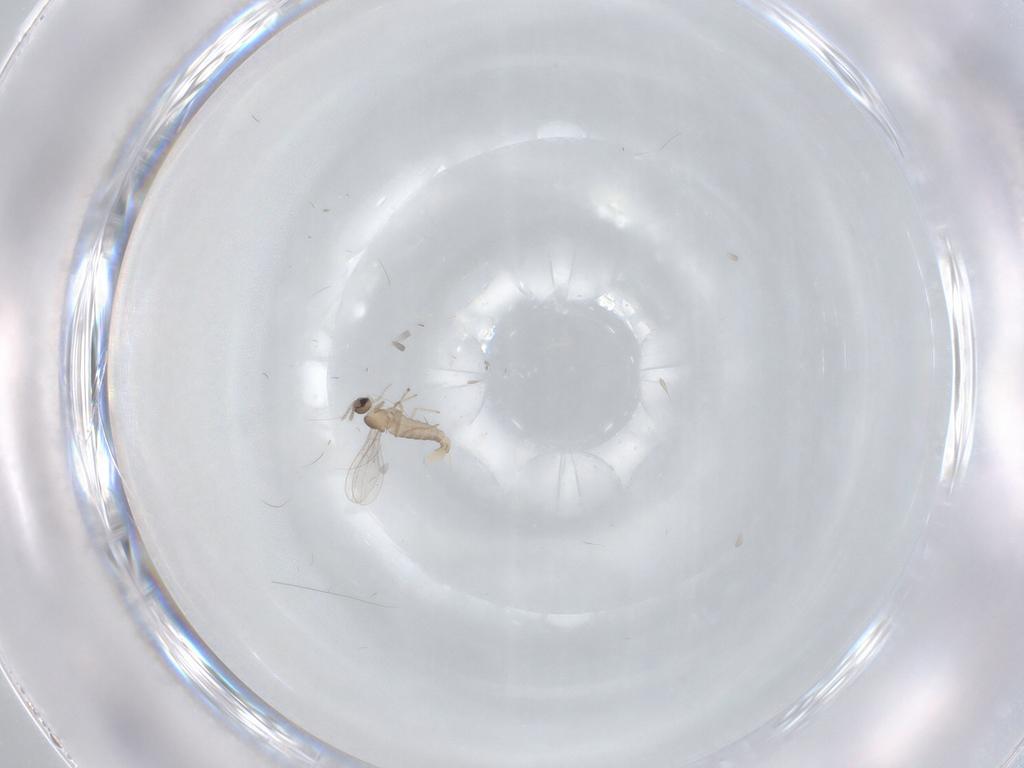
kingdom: Animalia
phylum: Arthropoda
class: Insecta
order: Diptera
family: Cecidomyiidae
